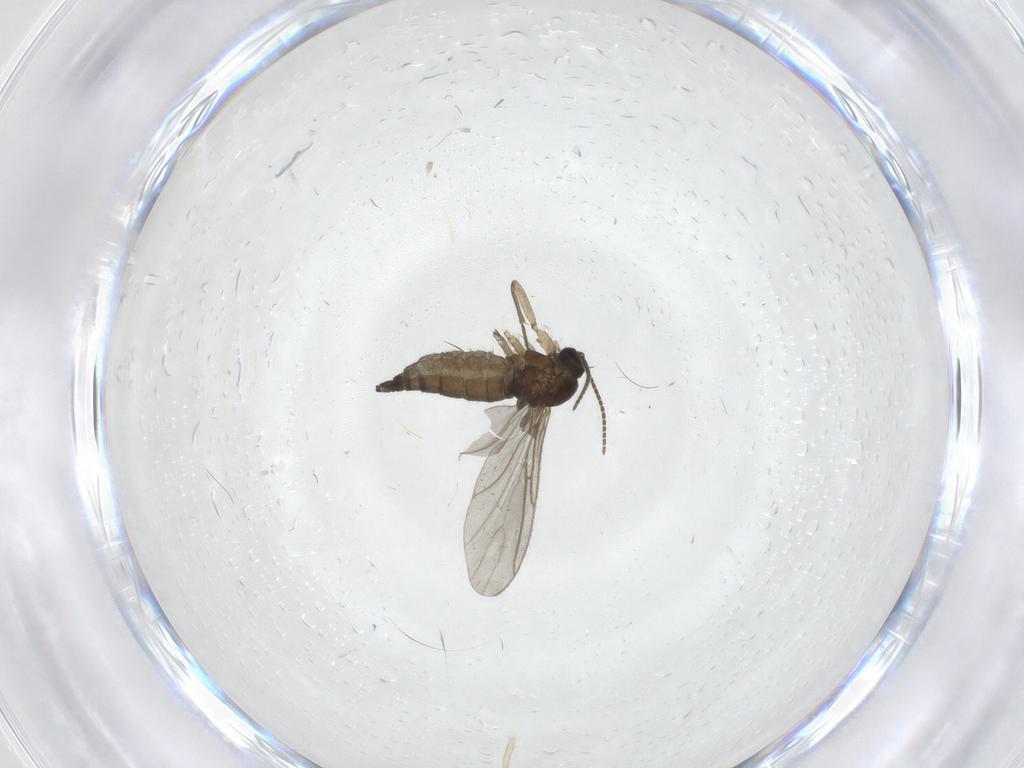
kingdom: Animalia
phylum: Arthropoda
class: Insecta
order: Diptera
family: Sciaridae
